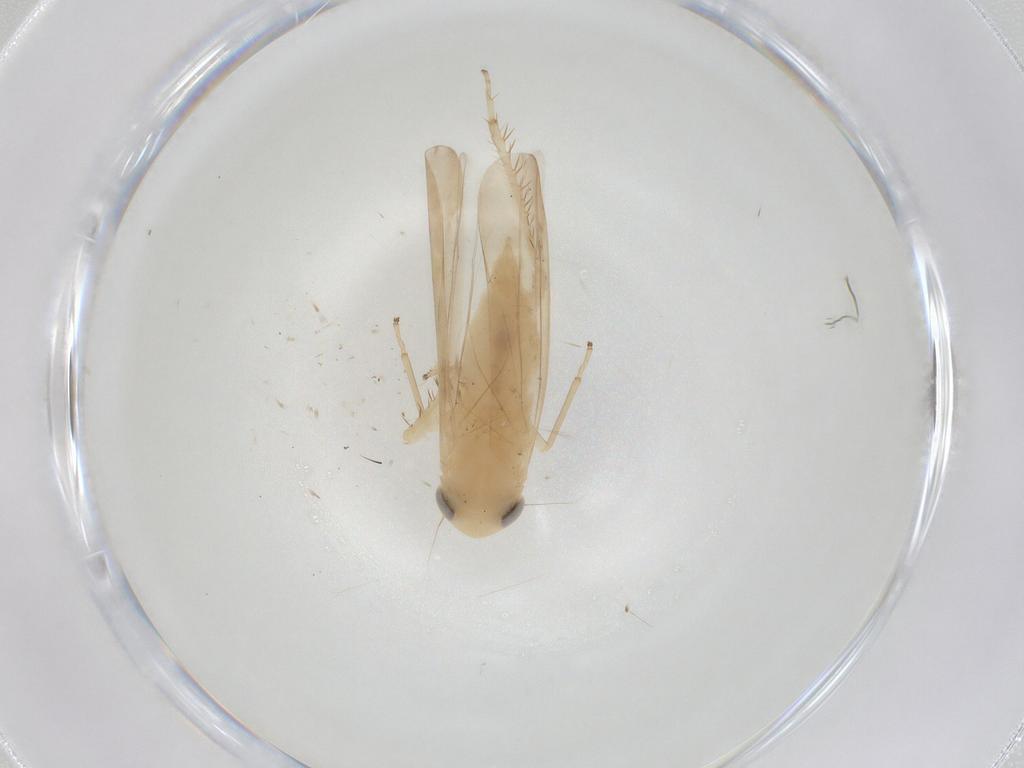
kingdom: Animalia
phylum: Arthropoda
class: Insecta
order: Hemiptera
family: Cicadellidae
